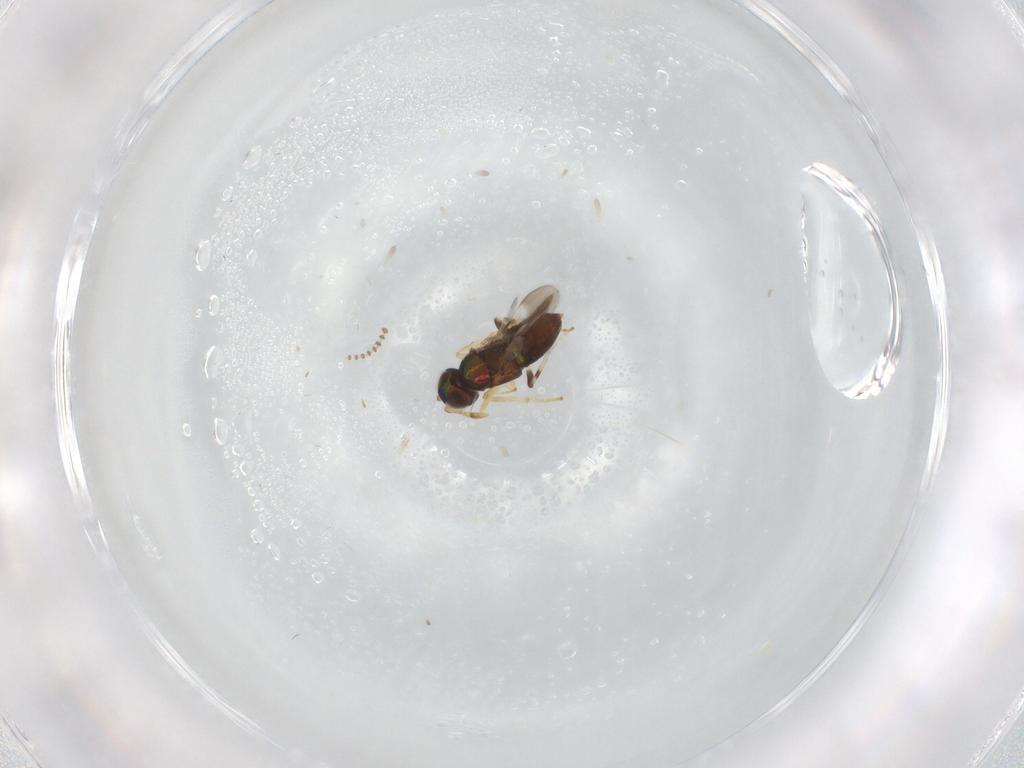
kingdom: Animalia
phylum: Arthropoda
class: Insecta
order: Hymenoptera
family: Encyrtidae
